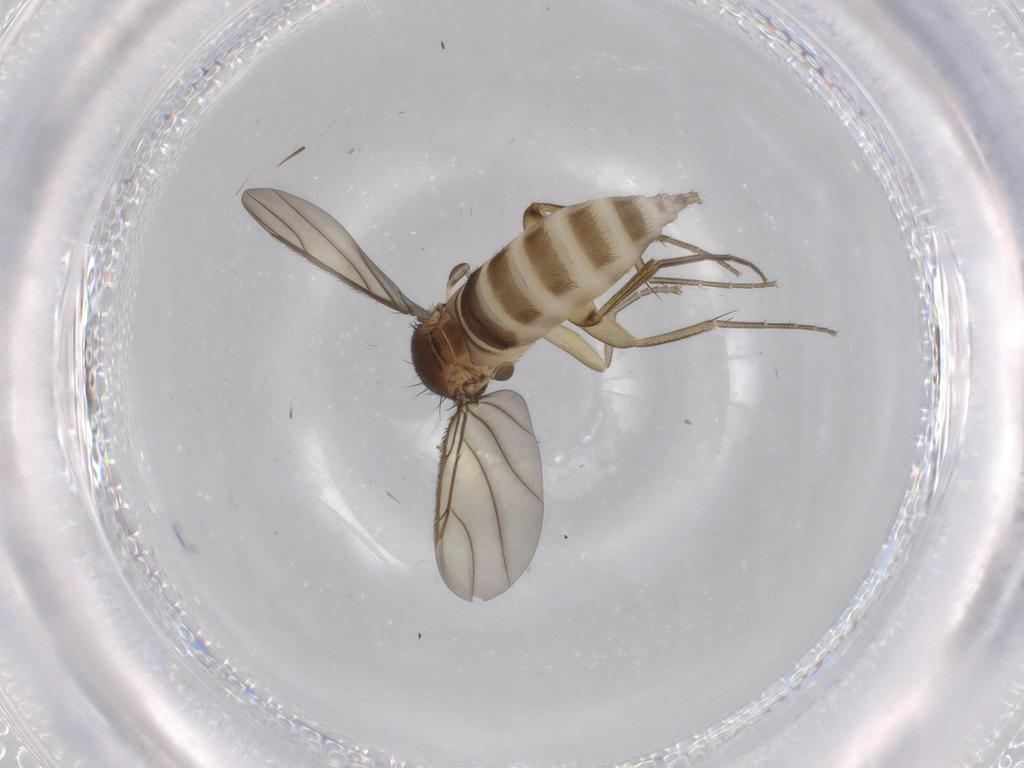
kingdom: Animalia
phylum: Arthropoda
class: Insecta
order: Diptera
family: Phoridae
